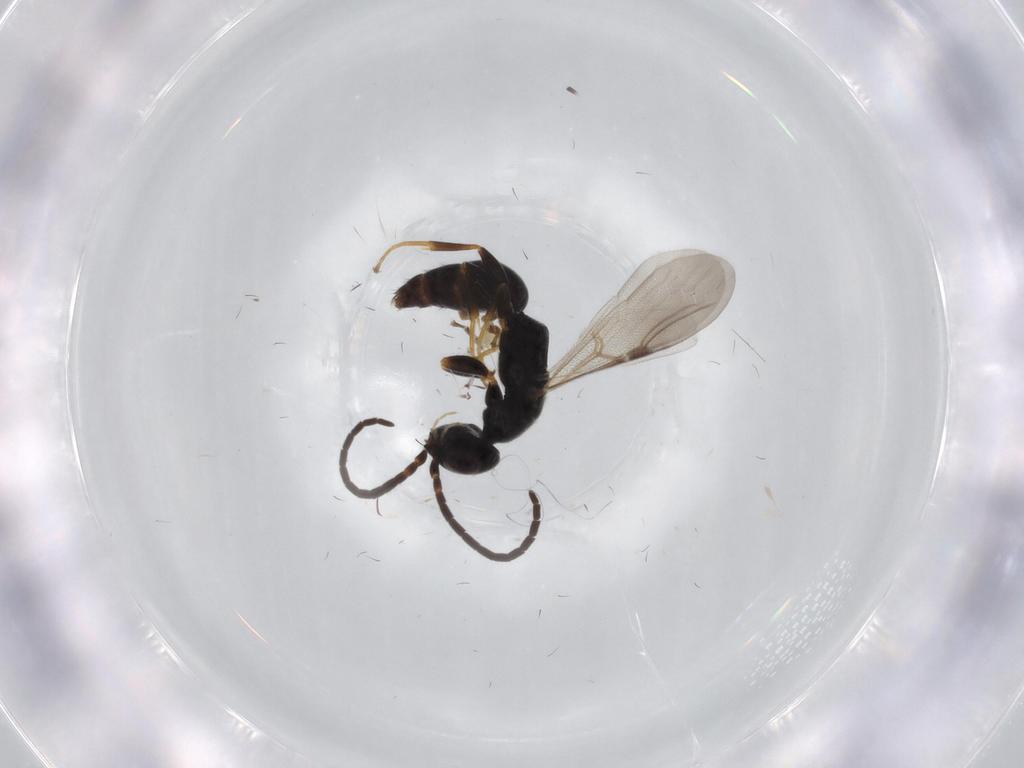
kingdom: Animalia
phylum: Arthropoda
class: Insecta
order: Hymenoptera
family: Bethylidae
